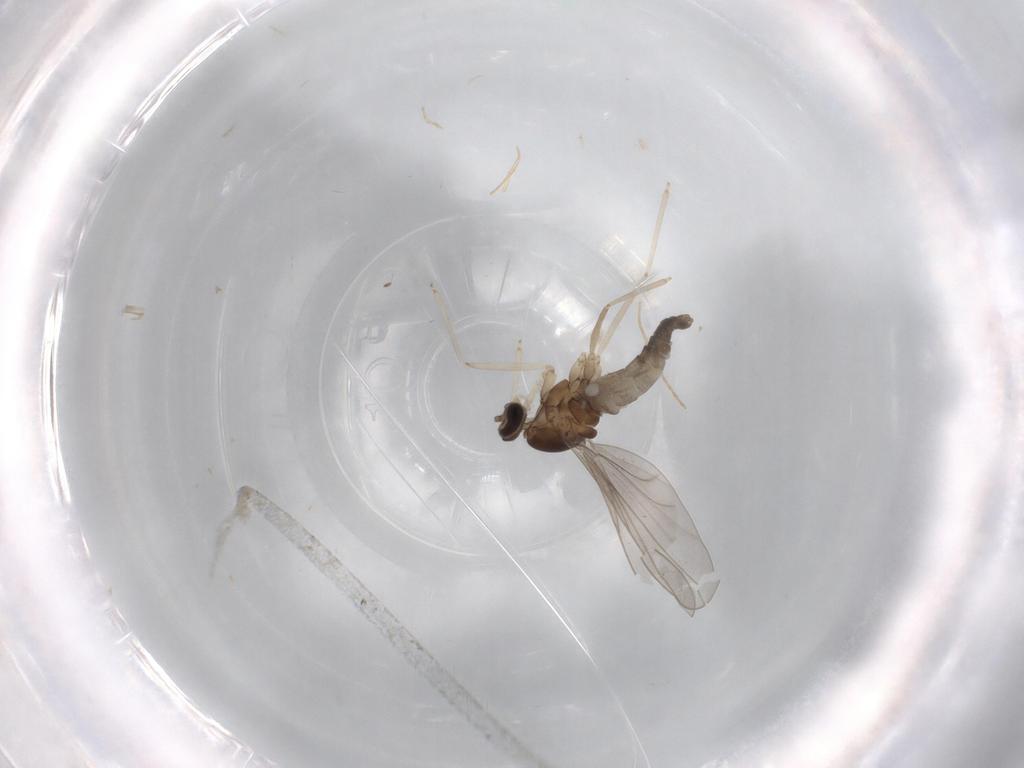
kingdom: Animalia
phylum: Arthropoda
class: Insecta
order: Diptera
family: Cecidomyiidae
